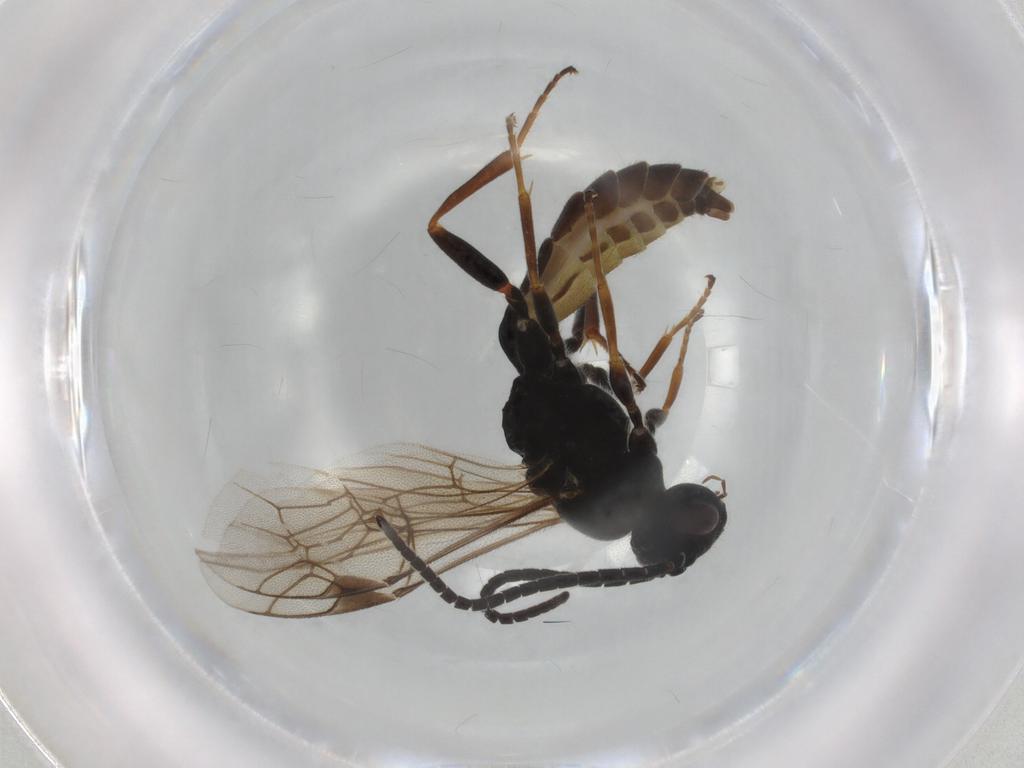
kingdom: Animalia
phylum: Arthropoda
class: Insecta
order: Hymenoptera
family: Ichneumonidae
